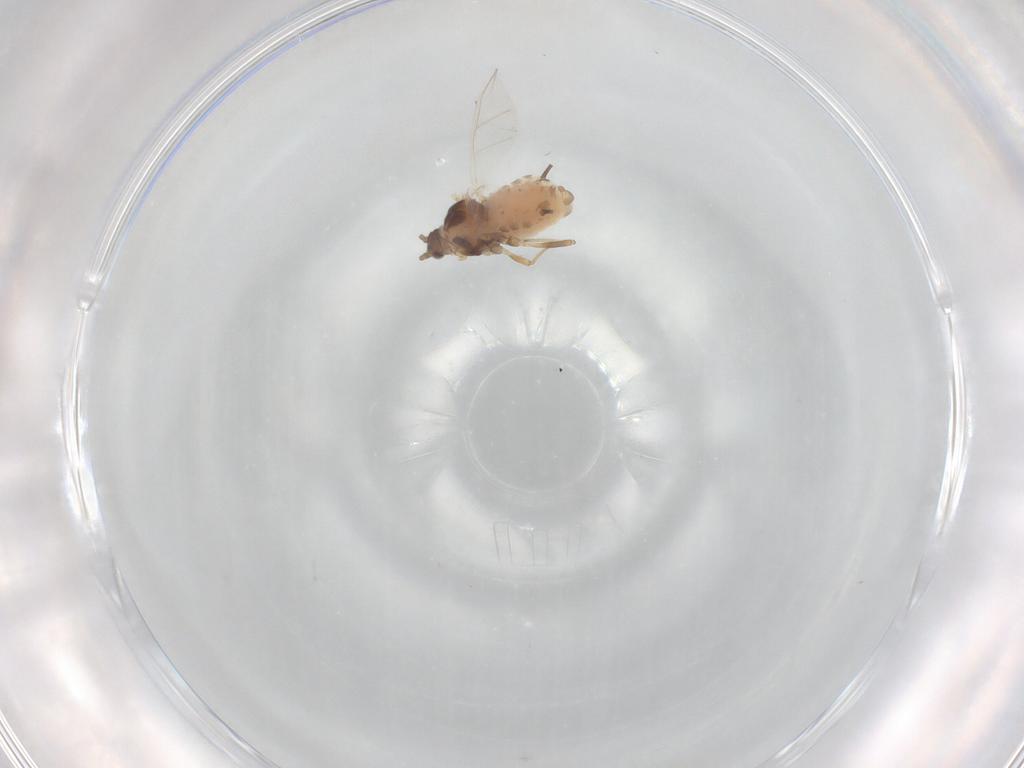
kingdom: Animalia
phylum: Arthropoda
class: Insecta
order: Hemiptera
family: Aphididae
